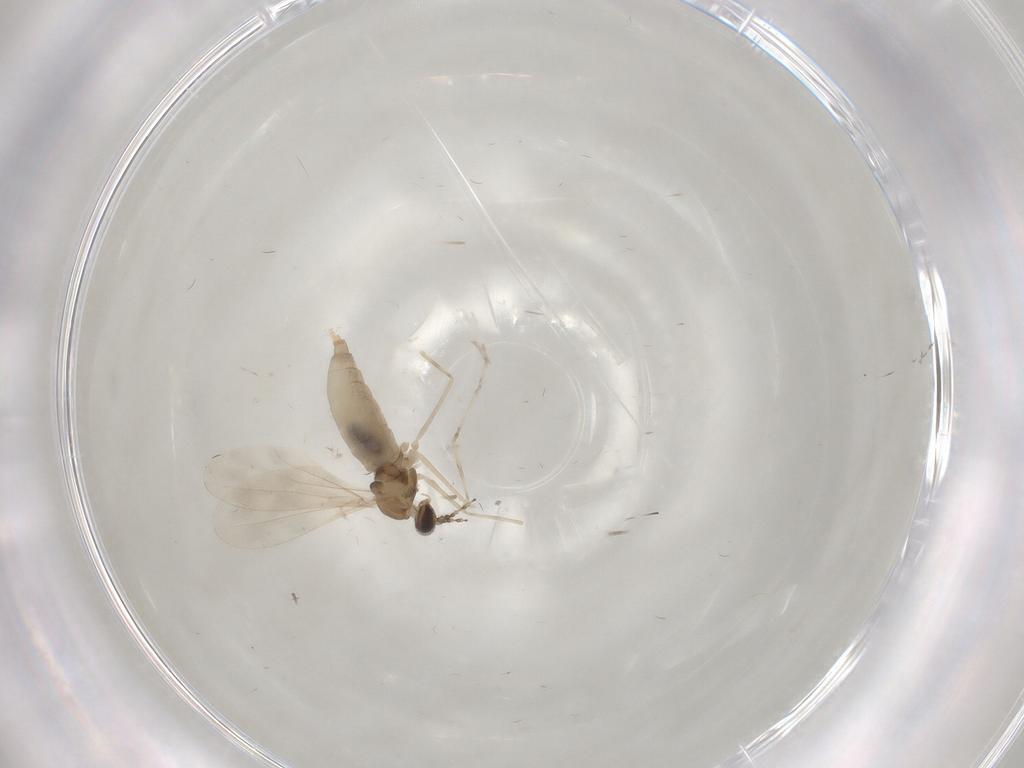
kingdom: Animalia
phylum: Arthropoda
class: Insecta
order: Diptera
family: Cecidomyiidae
